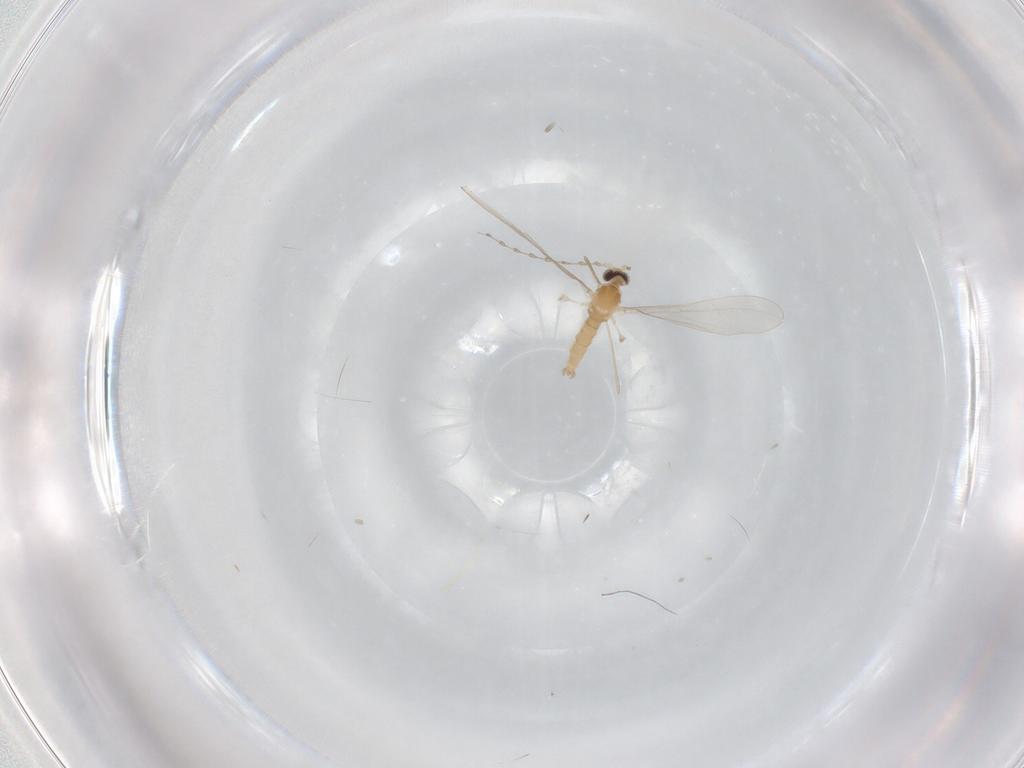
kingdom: Animalia
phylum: Arthropoda
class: Insecta
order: Diptera
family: Cecidomyiidae
